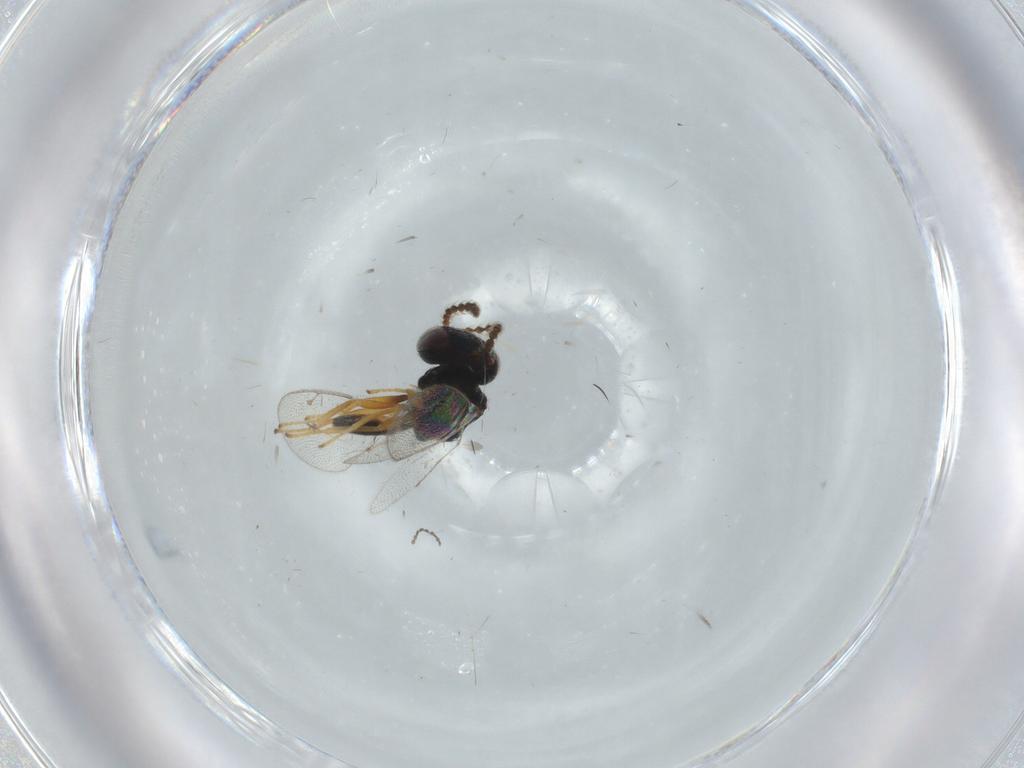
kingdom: Animalia
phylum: Arthropoda
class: Insecta
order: Hymenoptera
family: Pteromalidae
